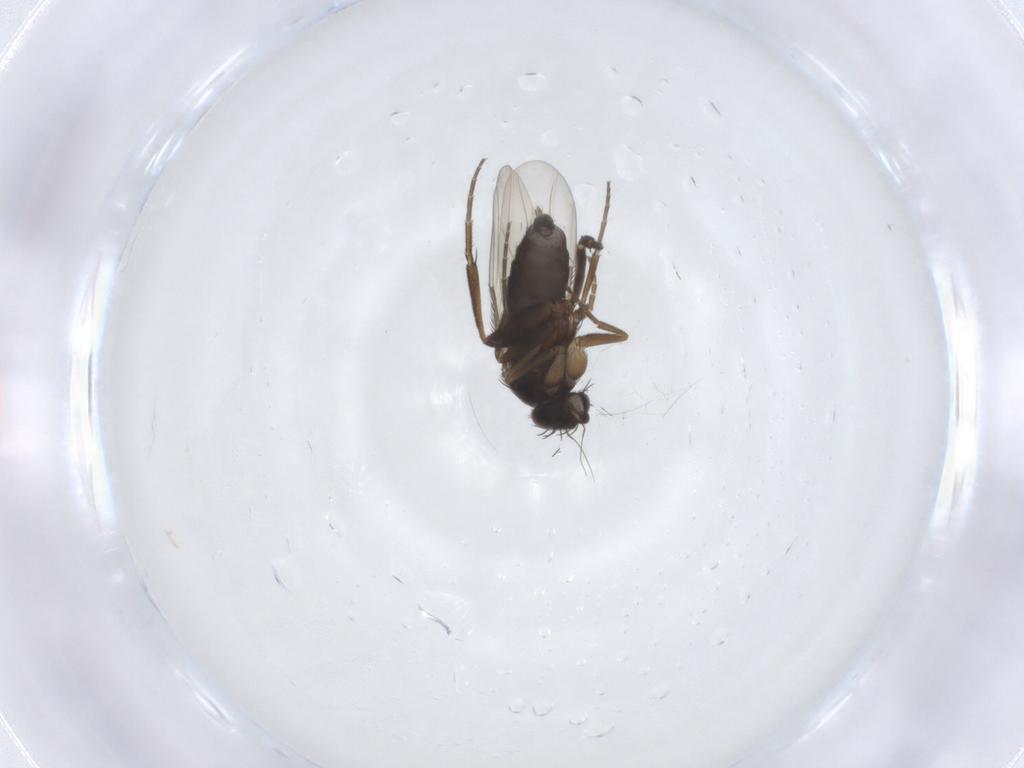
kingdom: Animalia
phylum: Arthropoda
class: Insecta
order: Diptera
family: Phoridae
